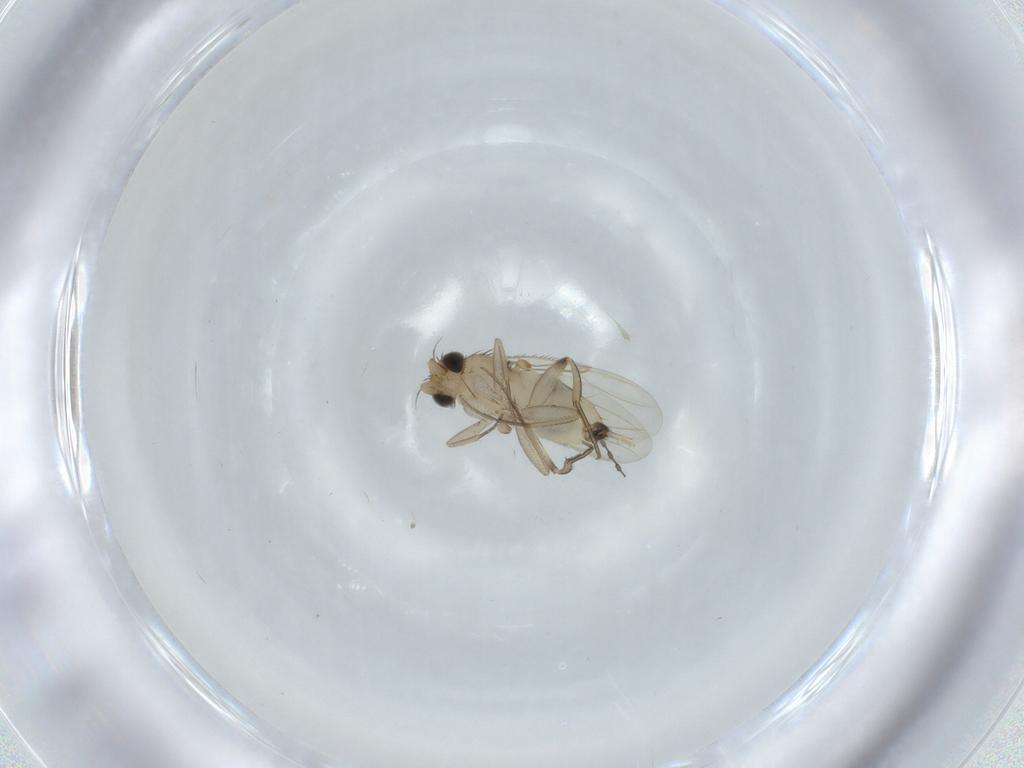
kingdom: Animalia
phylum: Arthropoda
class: Insecta
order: Diptera
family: Phoridae
